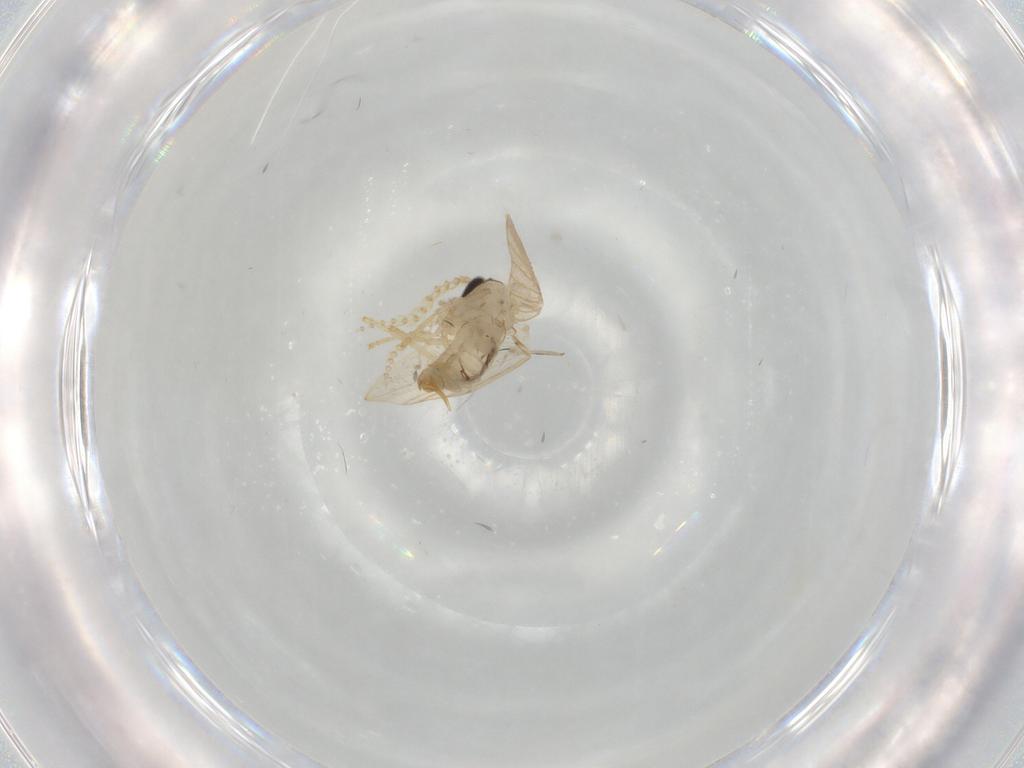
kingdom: Animalia
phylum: Arthropoda
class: Insecta
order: Diptera
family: Psychodidae
